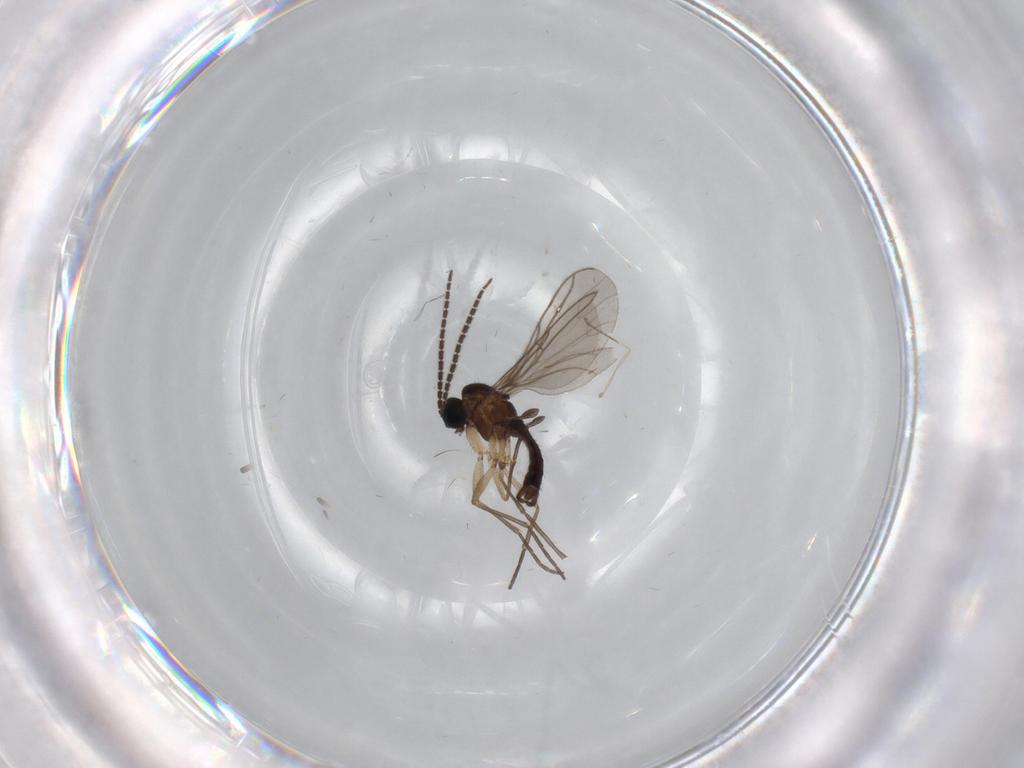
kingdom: Animalia
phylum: Arthropoda
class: Insecta
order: Diptera
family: Sciaridae
